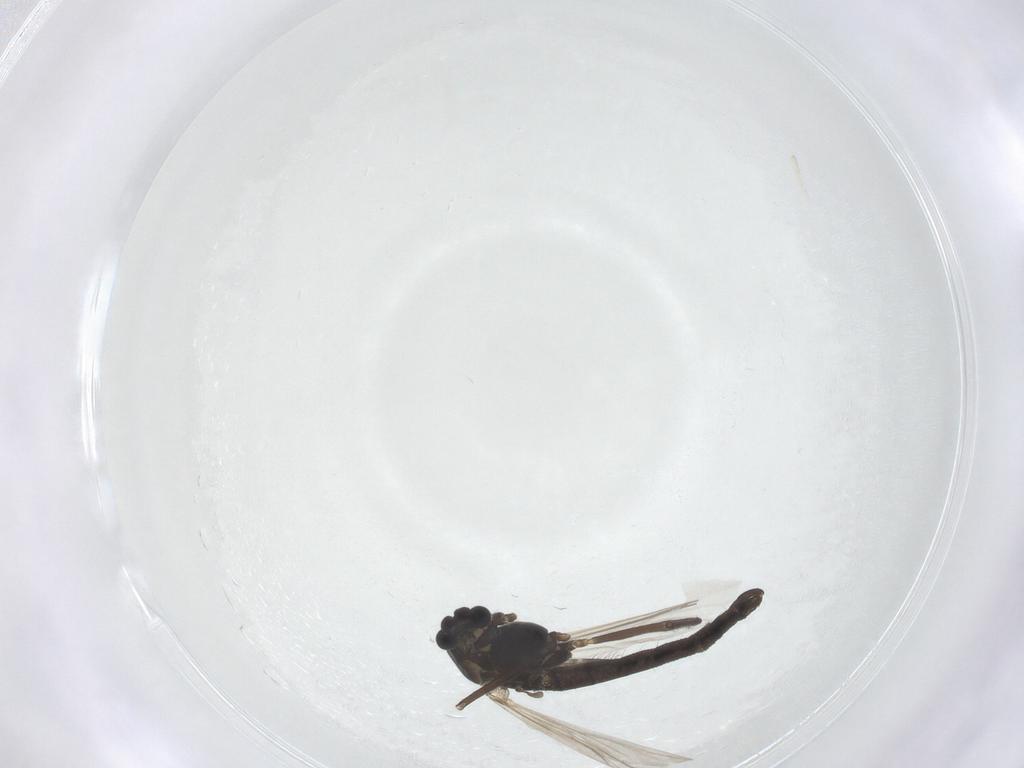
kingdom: Animalia
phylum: Arthropoda
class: Insecta
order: Diptera
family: Chironomidae
